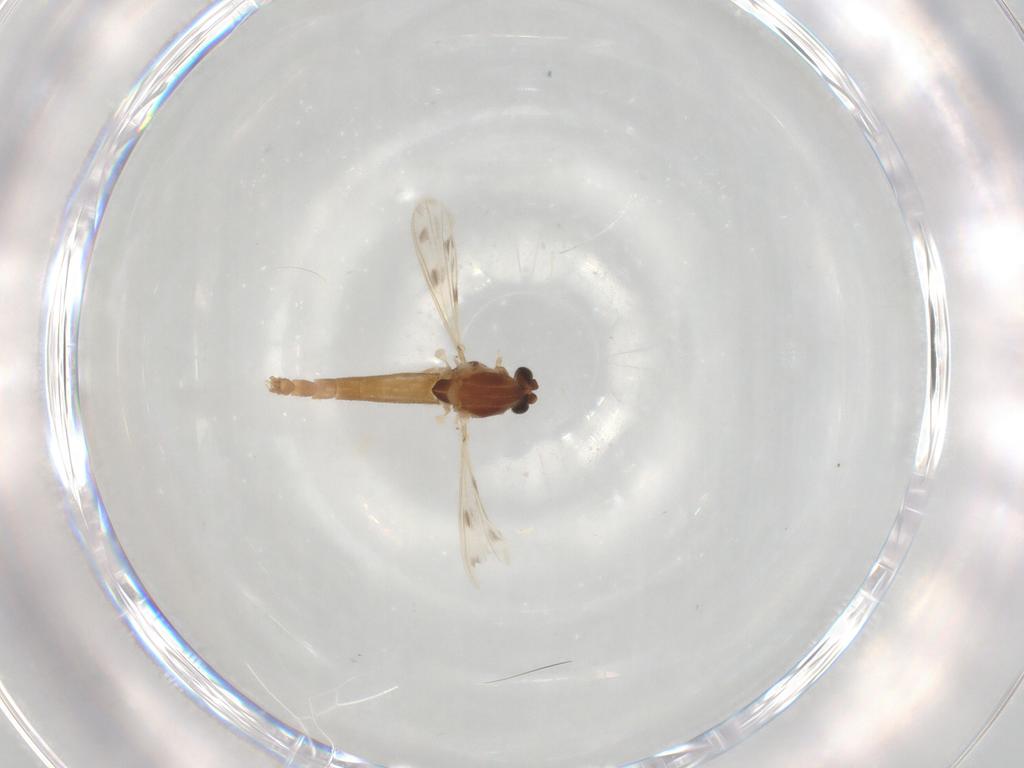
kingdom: Animalia
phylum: Arthropoda
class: Insecta
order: Diptera
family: Chironomidae
